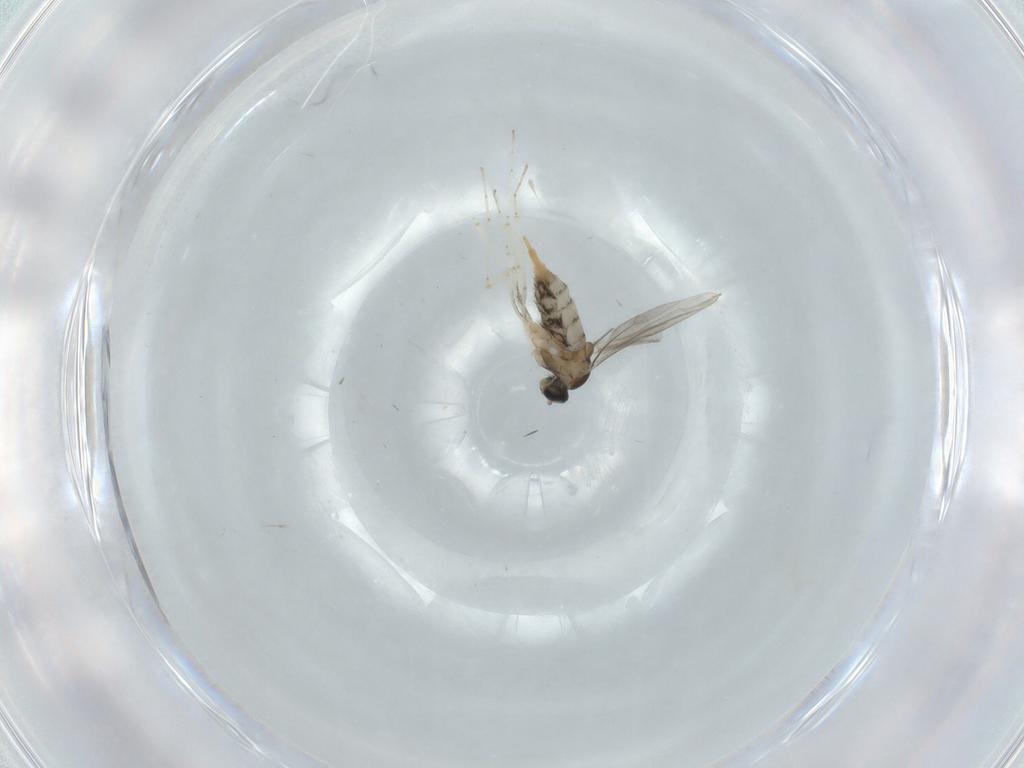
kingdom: Animalia
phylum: Arthropoda
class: Insecta
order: Diptera
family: Cecidomyiidae
